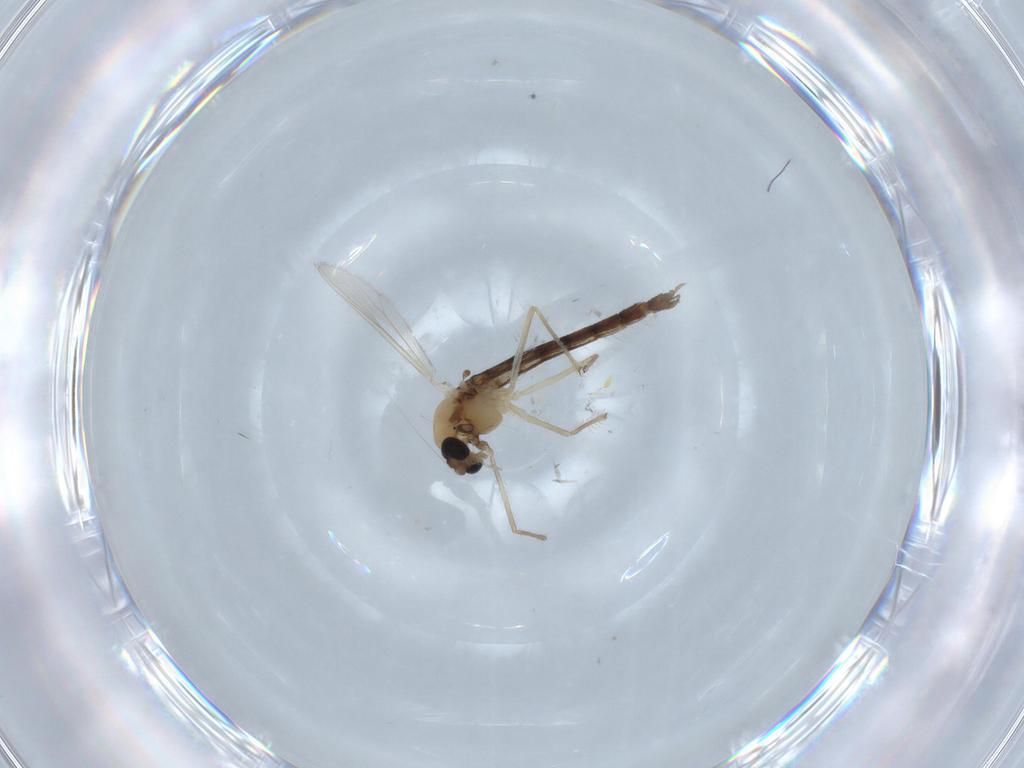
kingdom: Animalia
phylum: Arthropoda
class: Insecta
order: Diptera
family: Chironomidae
